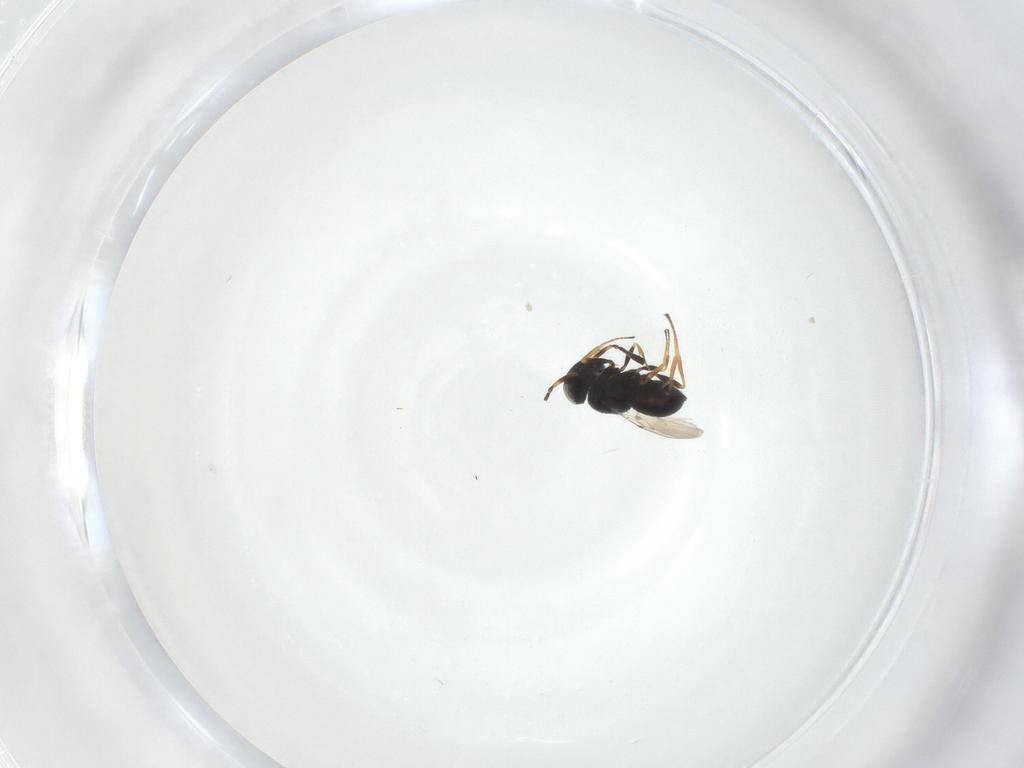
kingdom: Animalia
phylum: Arthropoda
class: Insecta
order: Hymenoptera
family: Scelionidae
